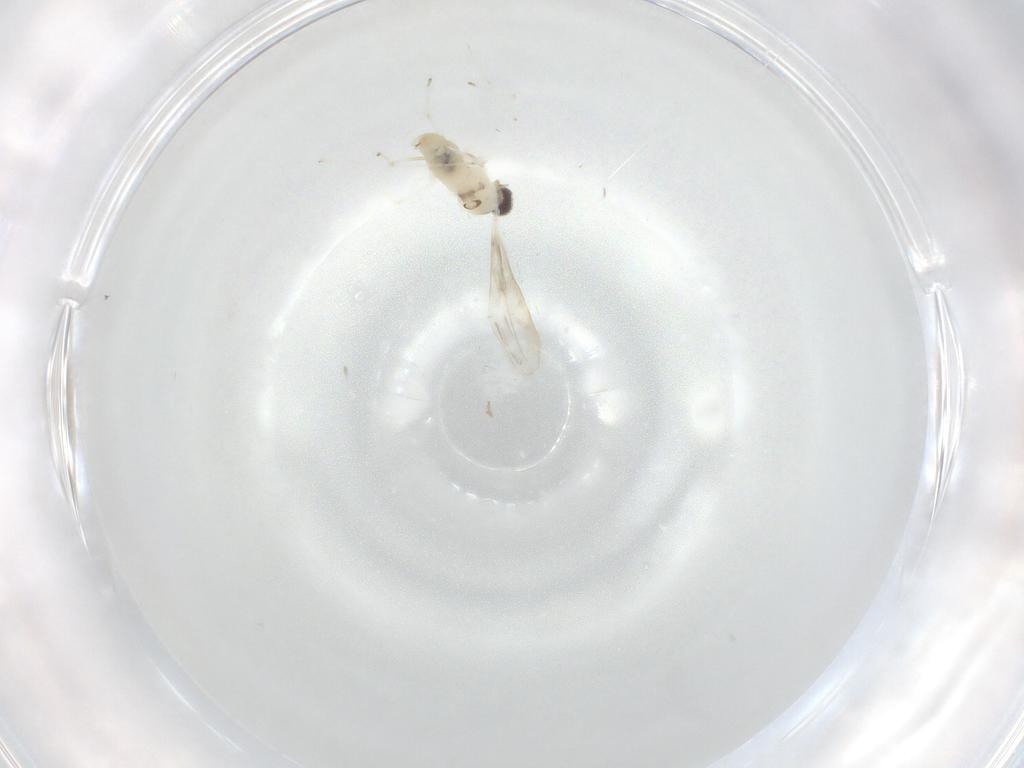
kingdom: Animalia
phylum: Arthropoda
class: Insecta
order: Diptera
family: Cecidomyiidae
